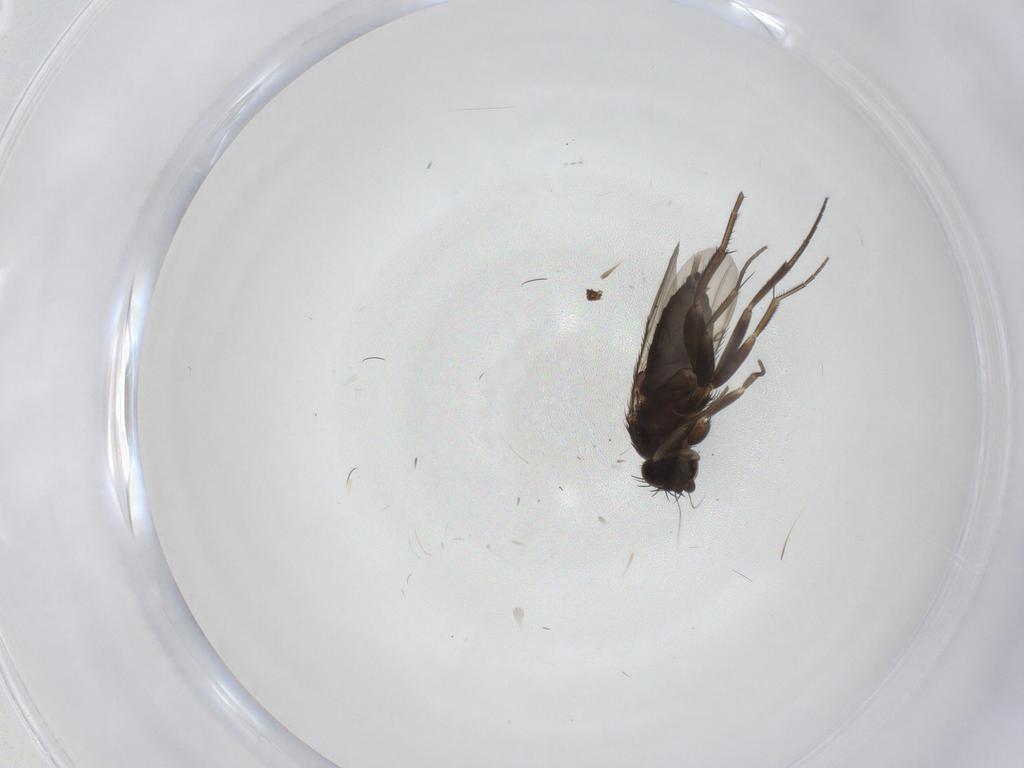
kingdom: Animalia
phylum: Arthropoda
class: Insecta
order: Diptera
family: Phoridae
